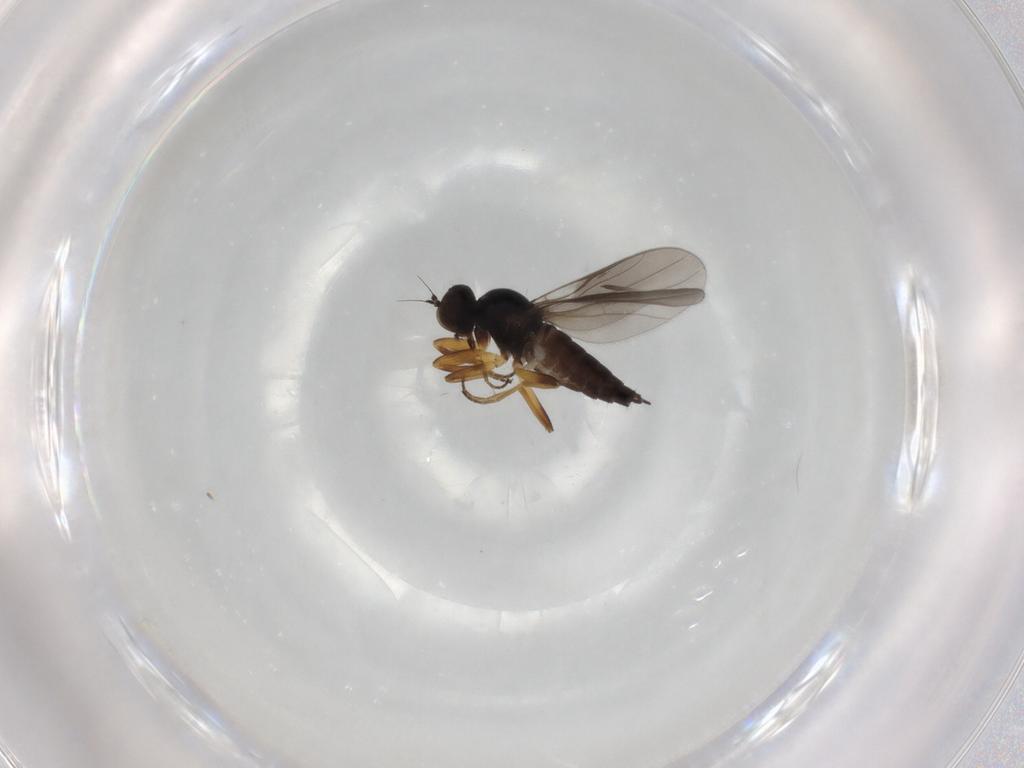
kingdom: Animalia
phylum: Arthropoda
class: Insecta
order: Diptera
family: Hybotidae
